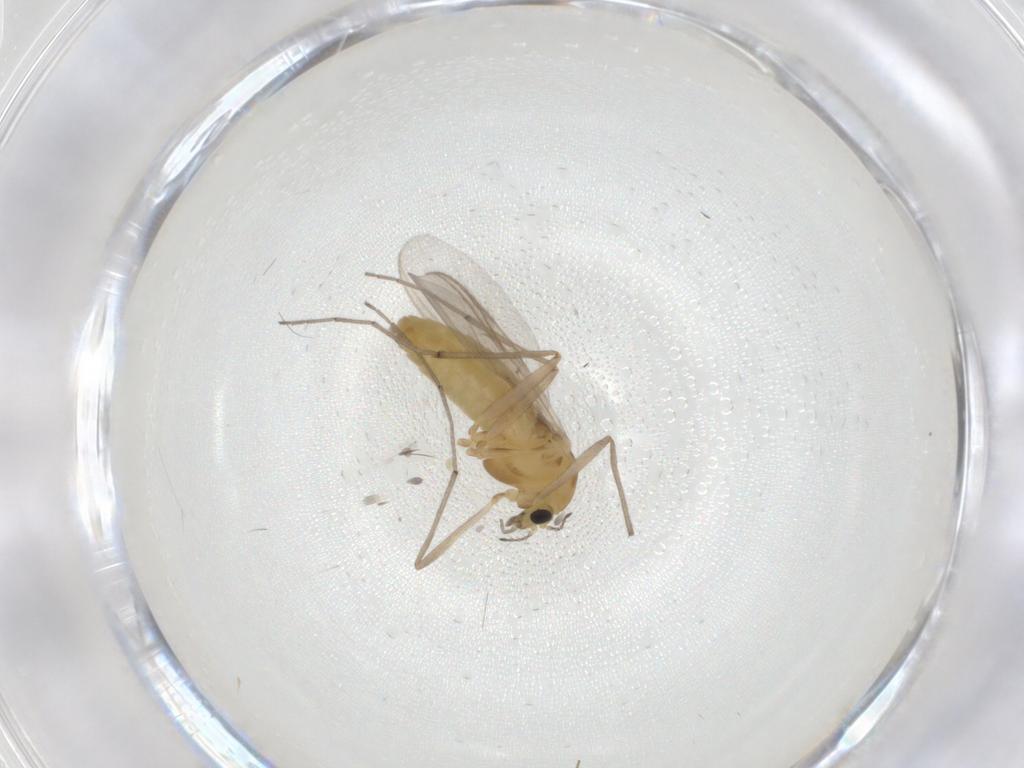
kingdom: Animalia
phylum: Arthropoda
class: Insecta
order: Diptera
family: Chironomidae
